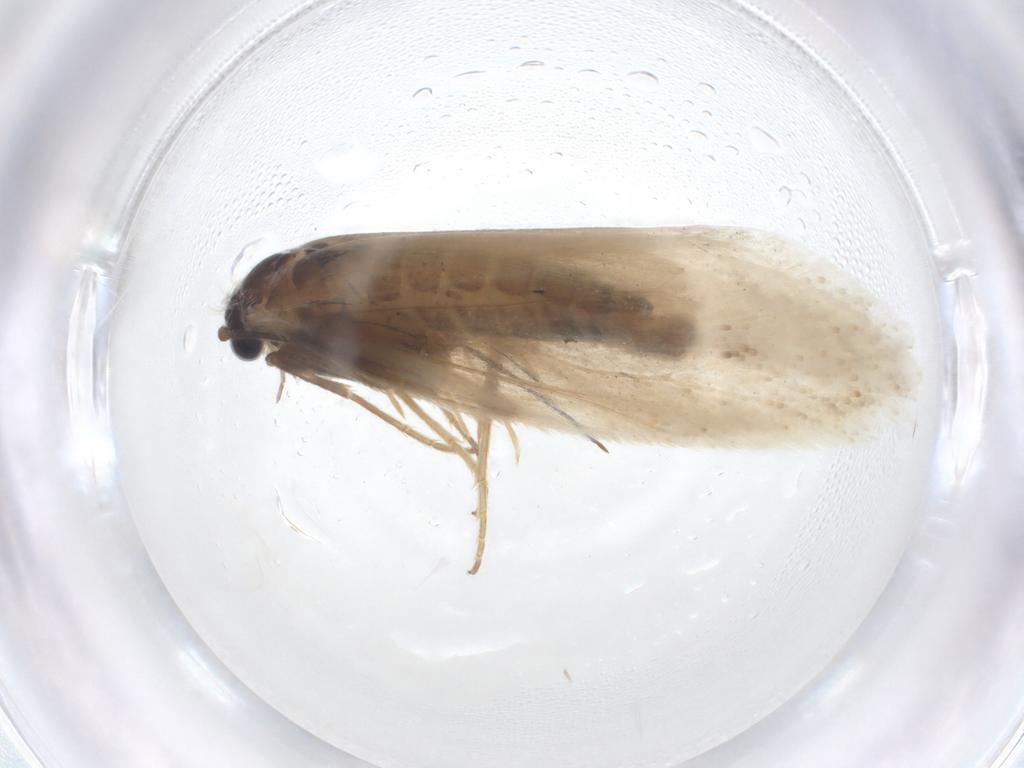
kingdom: Animalia
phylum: Arthropoda
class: Insecta
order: Lepidoptera
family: Tridentaformidae
